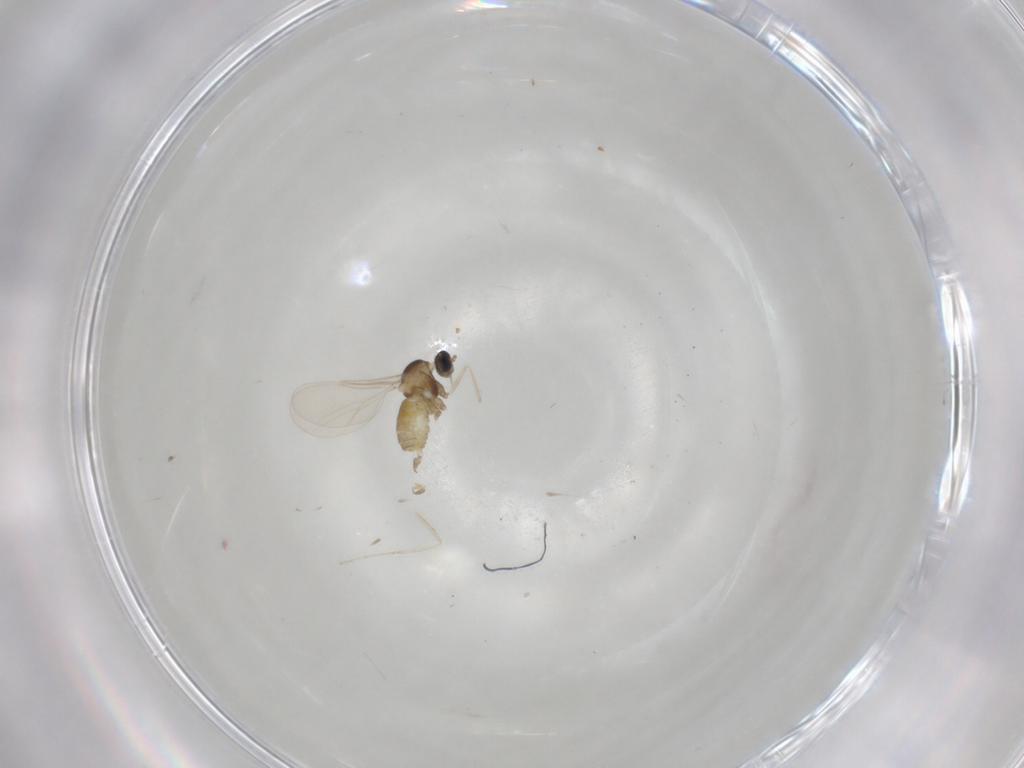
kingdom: Animalia
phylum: Arthropoda
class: Insecta
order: Diptera
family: Cecidomyiidae
